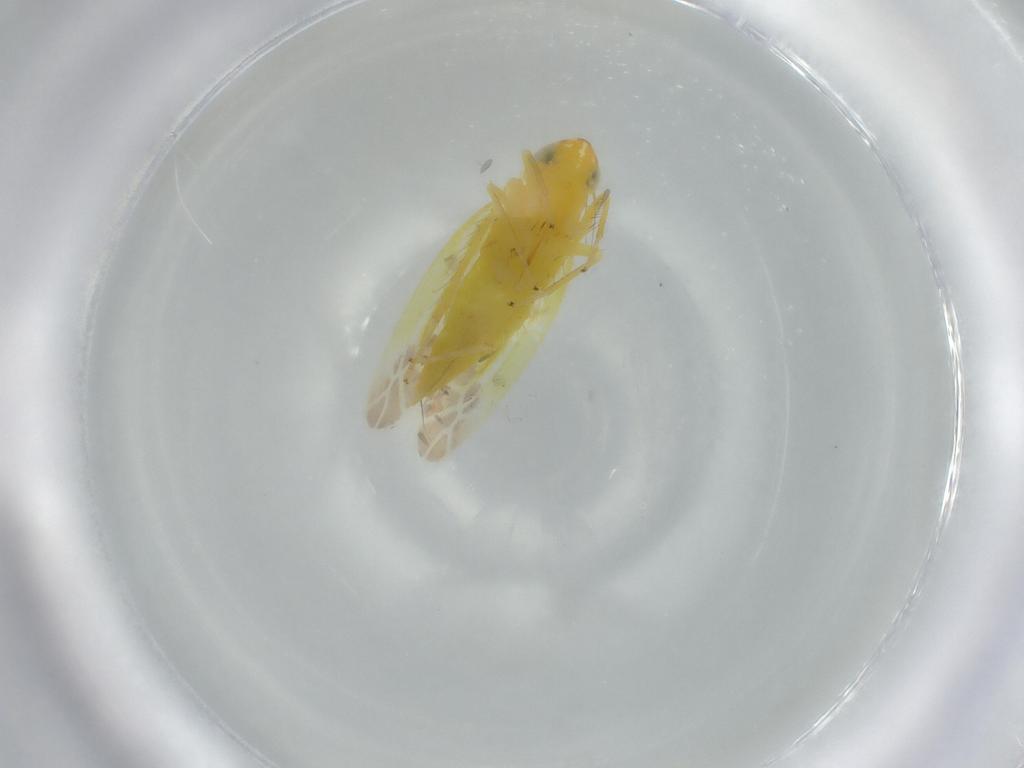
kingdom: Animalia
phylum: Arthropoda
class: Insecta
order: Hemiptera
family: Cicadellidae
